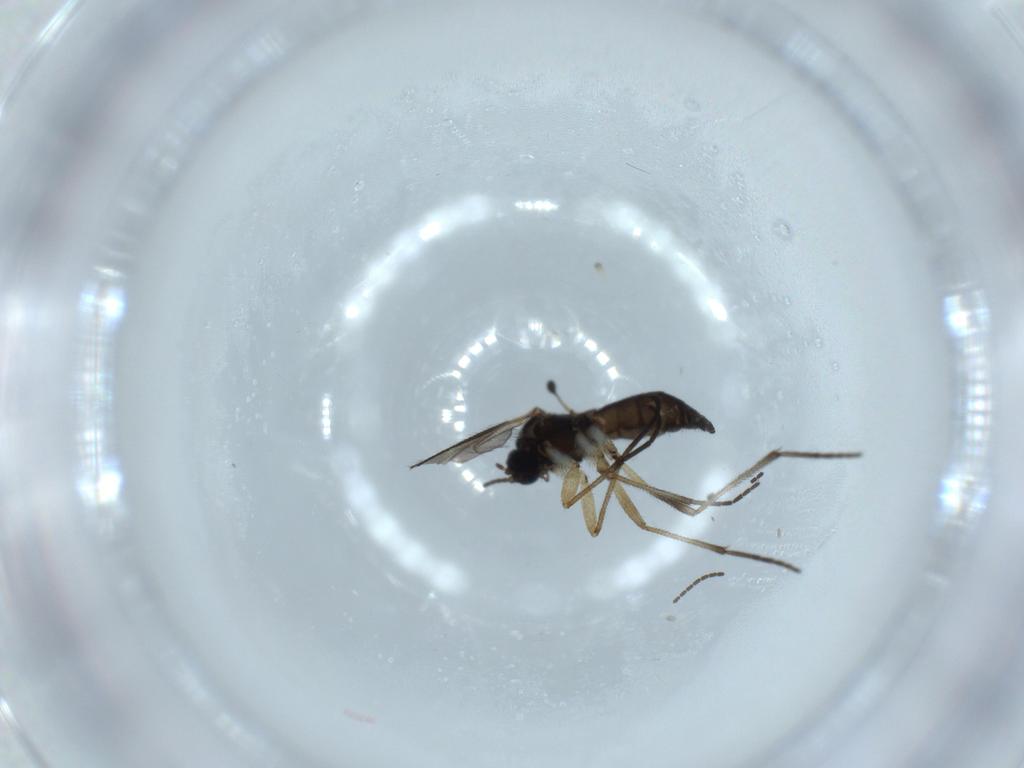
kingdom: Animalia
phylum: Arthropoda
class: Insecta
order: Diptera
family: Sciaridae
